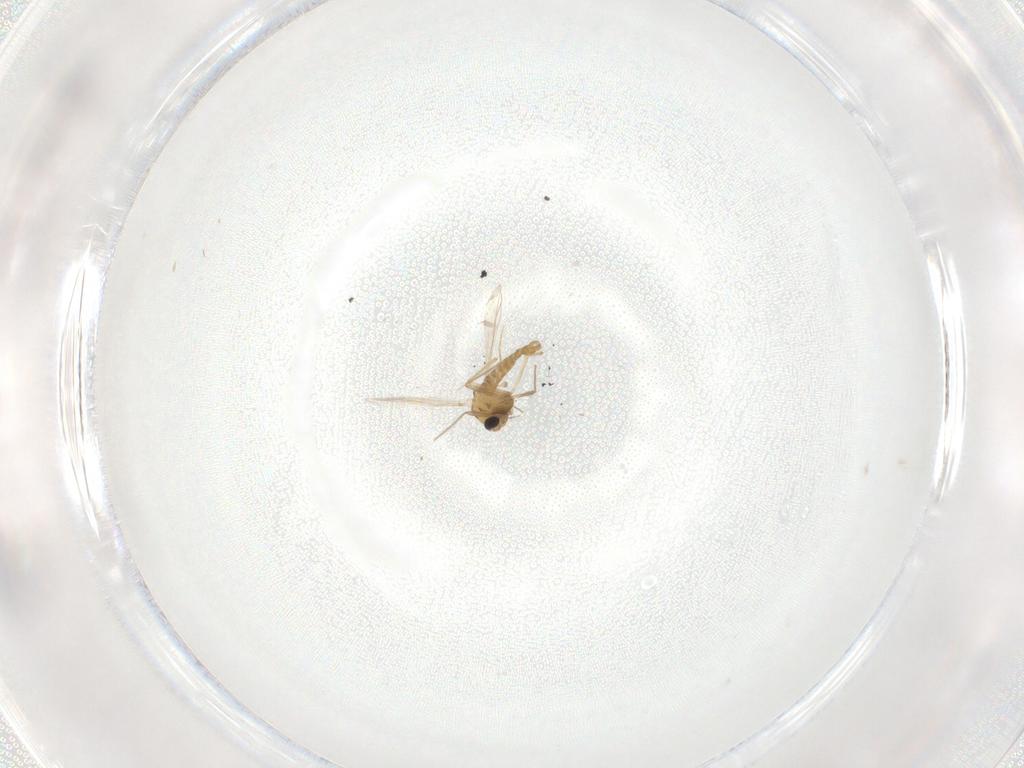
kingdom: Animalia
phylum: Arthropoda
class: Insecta
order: Diptera
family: Chironomidae
